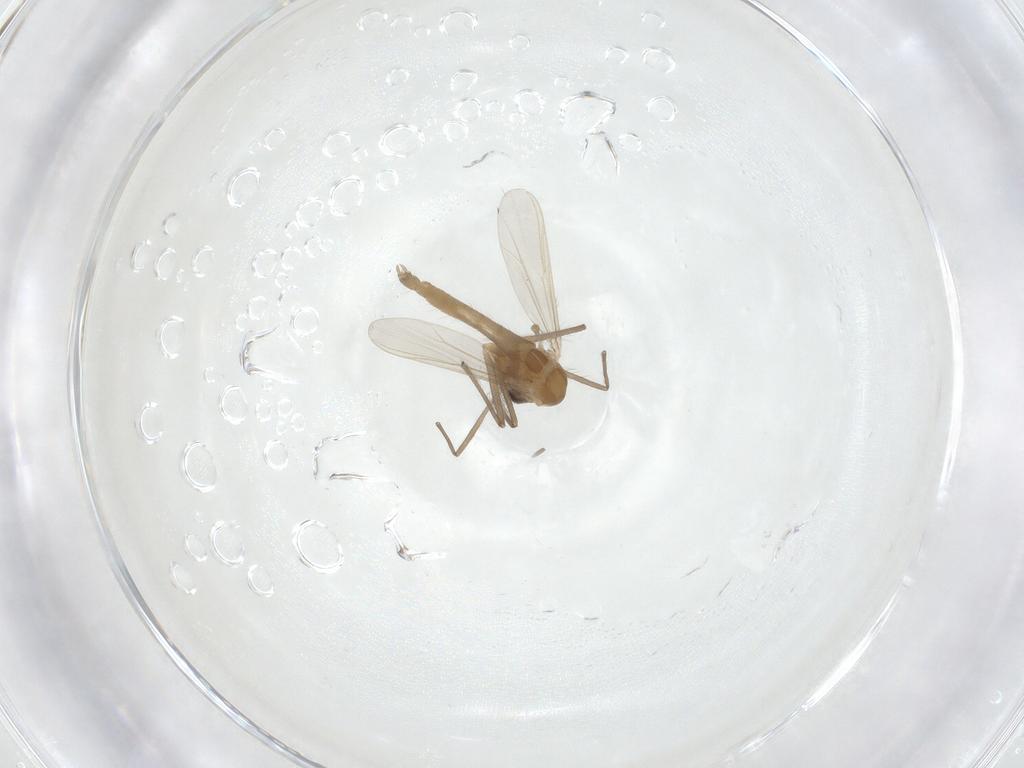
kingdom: Animalia
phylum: Arthropoda
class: Insecta
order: Diptera
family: Chironomidae
